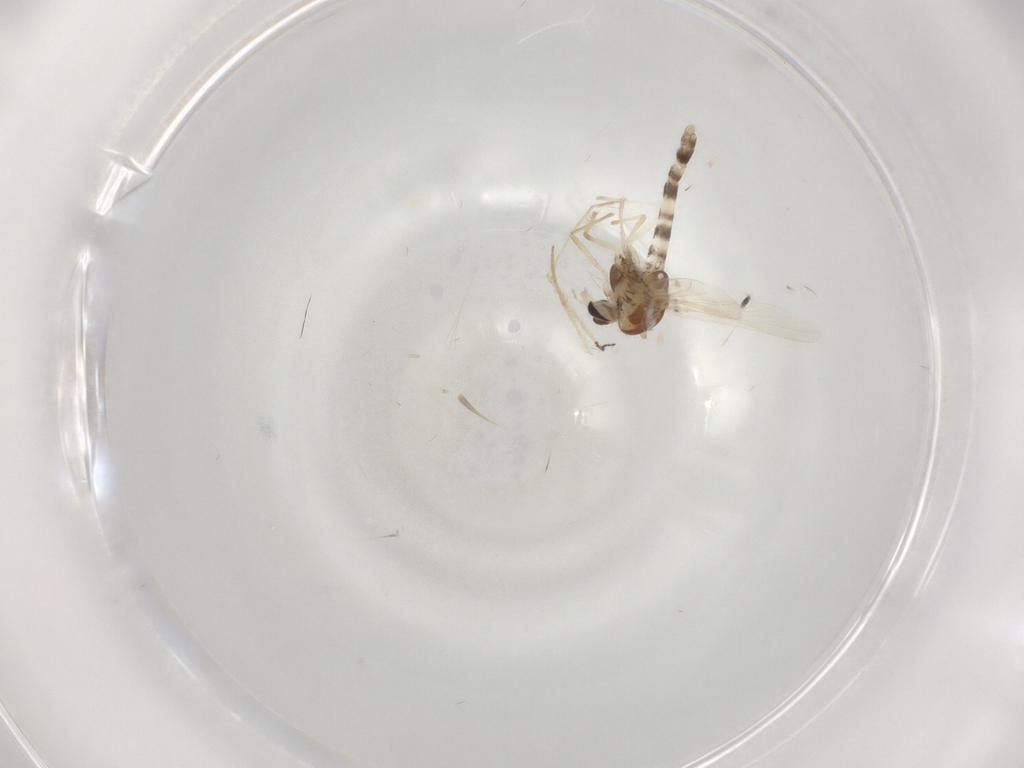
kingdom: Animalia
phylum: Arthropoda
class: Insecta
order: Diptera
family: Chironomidae
